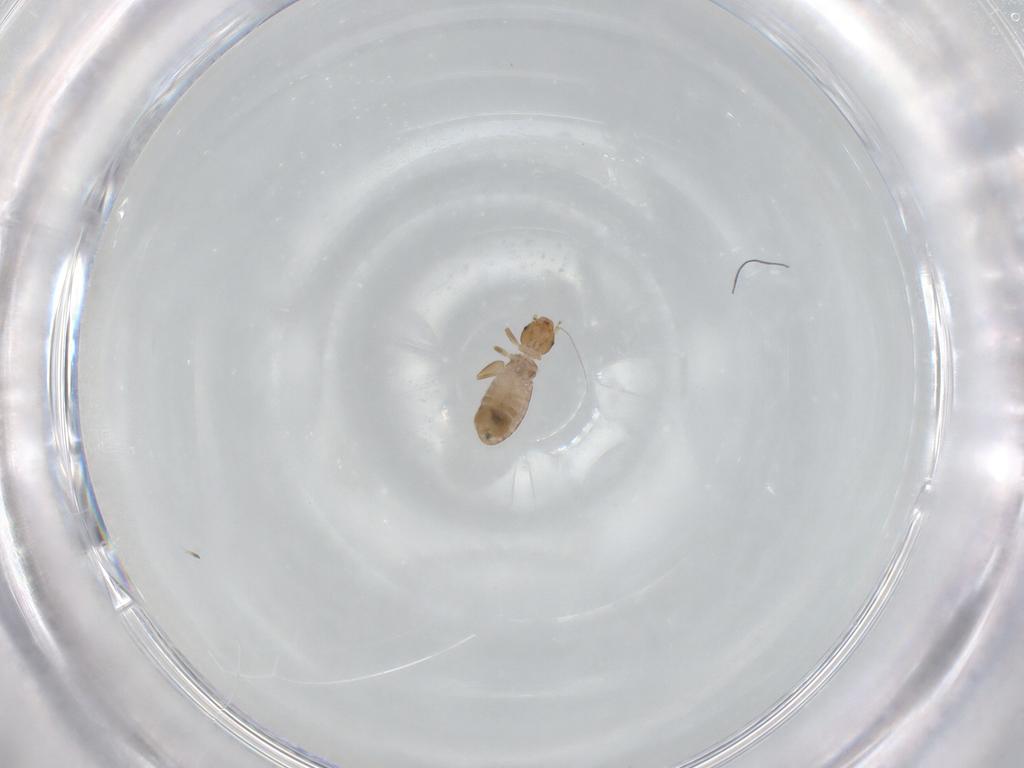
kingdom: Animalia
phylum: Arthropoda
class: Insecta
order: Psocodea
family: Liposcelididae
